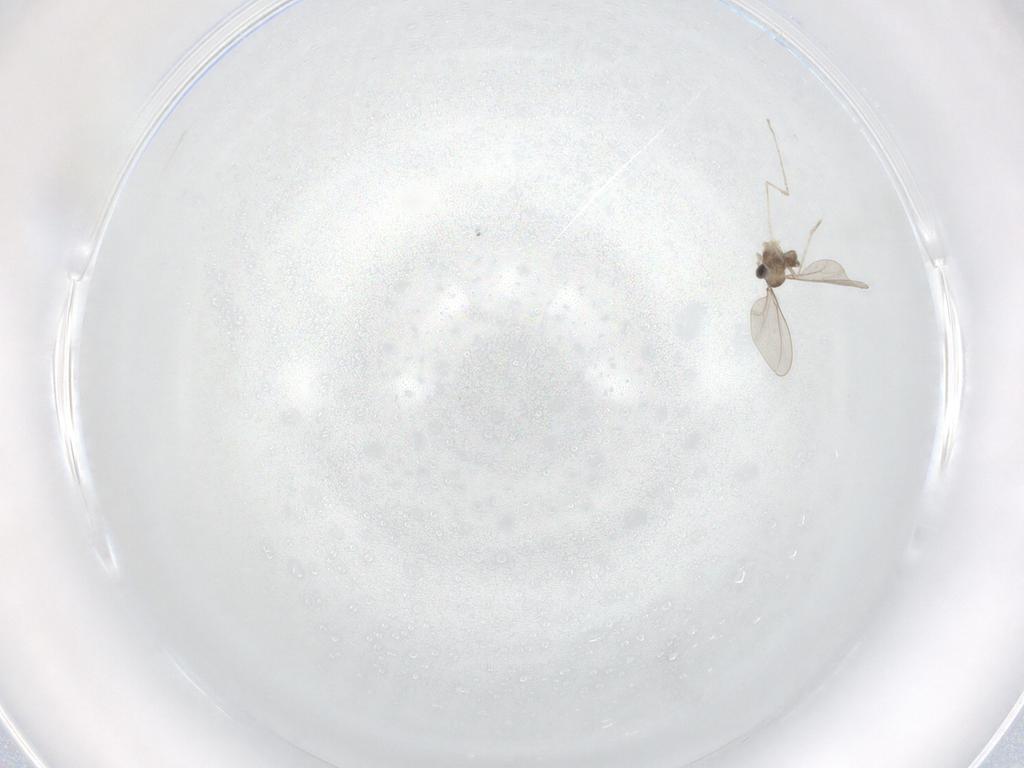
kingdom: Animalia
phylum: Arthropoda
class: Insecta
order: Diptera
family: Cecidomyiidae
